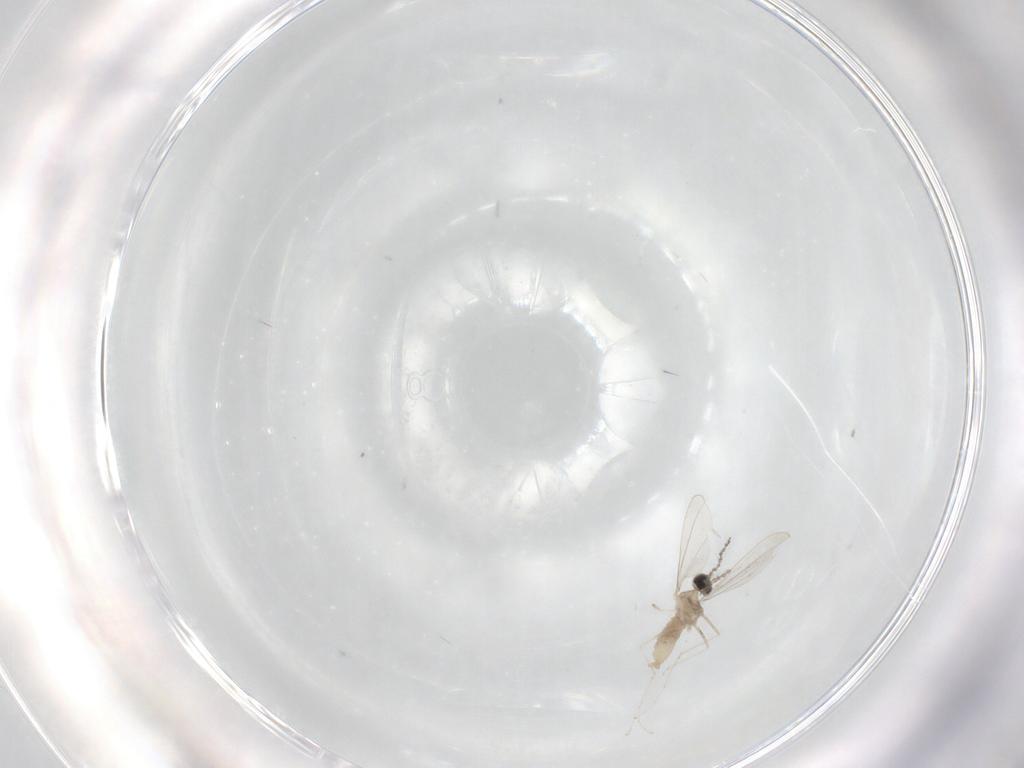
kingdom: Animalia
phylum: Arthropoda
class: Insecta
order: Diptera
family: Cecidomyiidae
